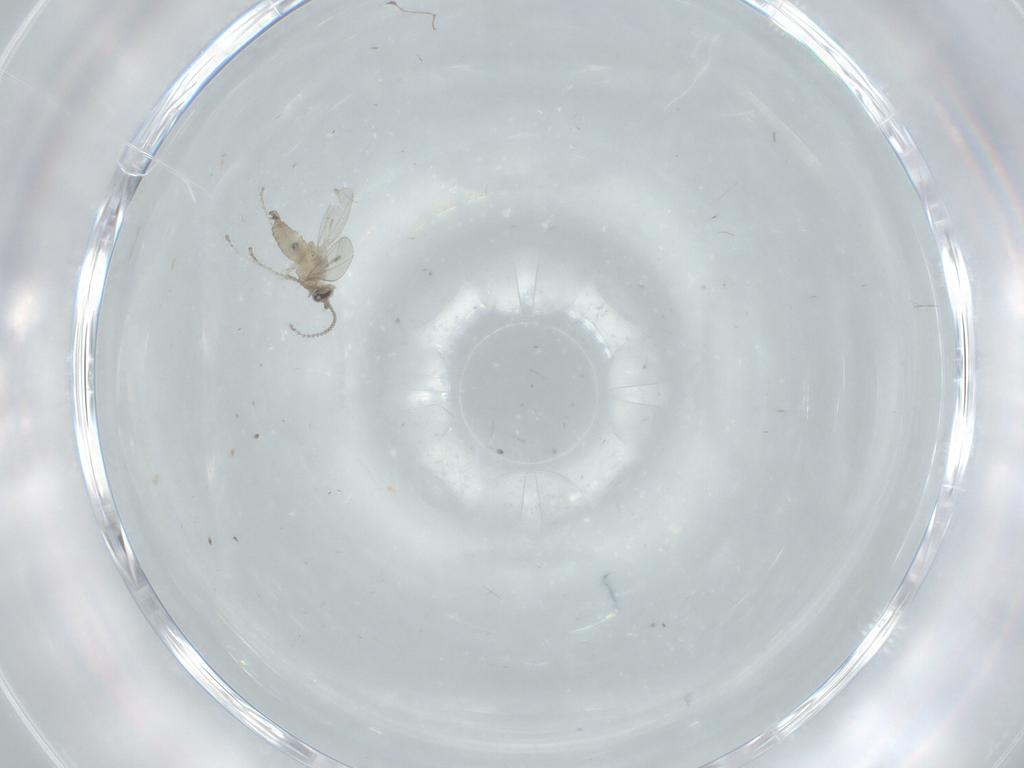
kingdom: Animalia
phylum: Arthropoda
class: Insecta
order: Diptera
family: Cecidomyiidae
